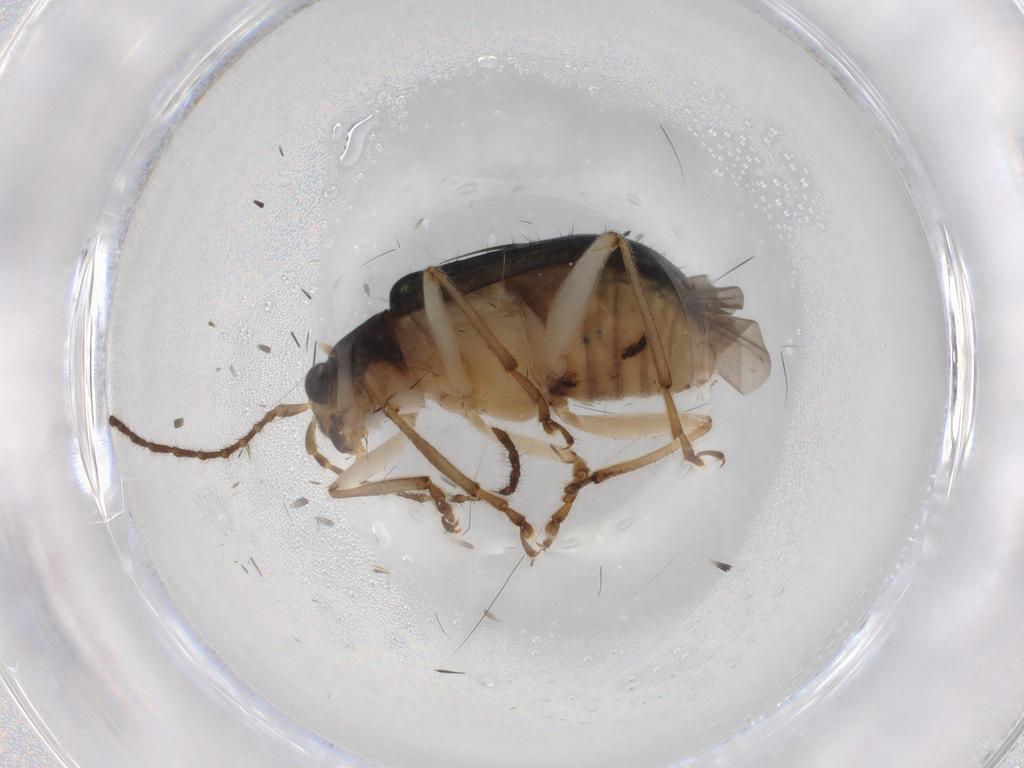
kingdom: Animalia
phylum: Arthropoda
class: Insecta
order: Coleoptera
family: Chrysomelidae
